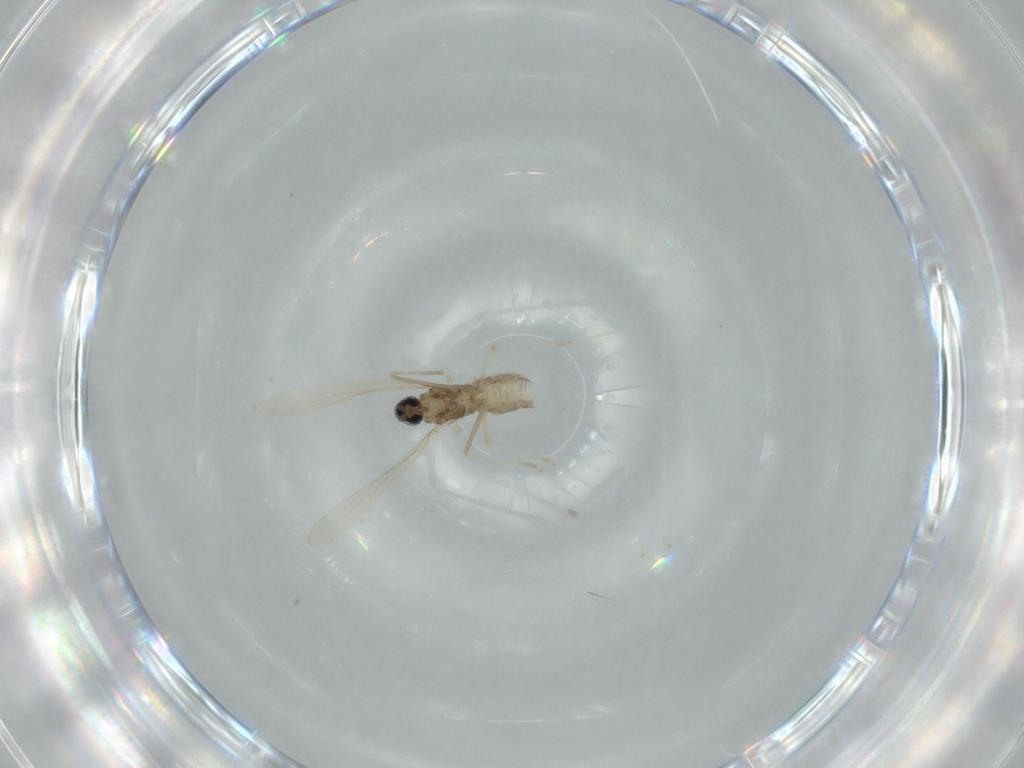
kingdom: Animalia
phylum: Arthropoda
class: Insecta
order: Diptera
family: Cecidomyiidae
